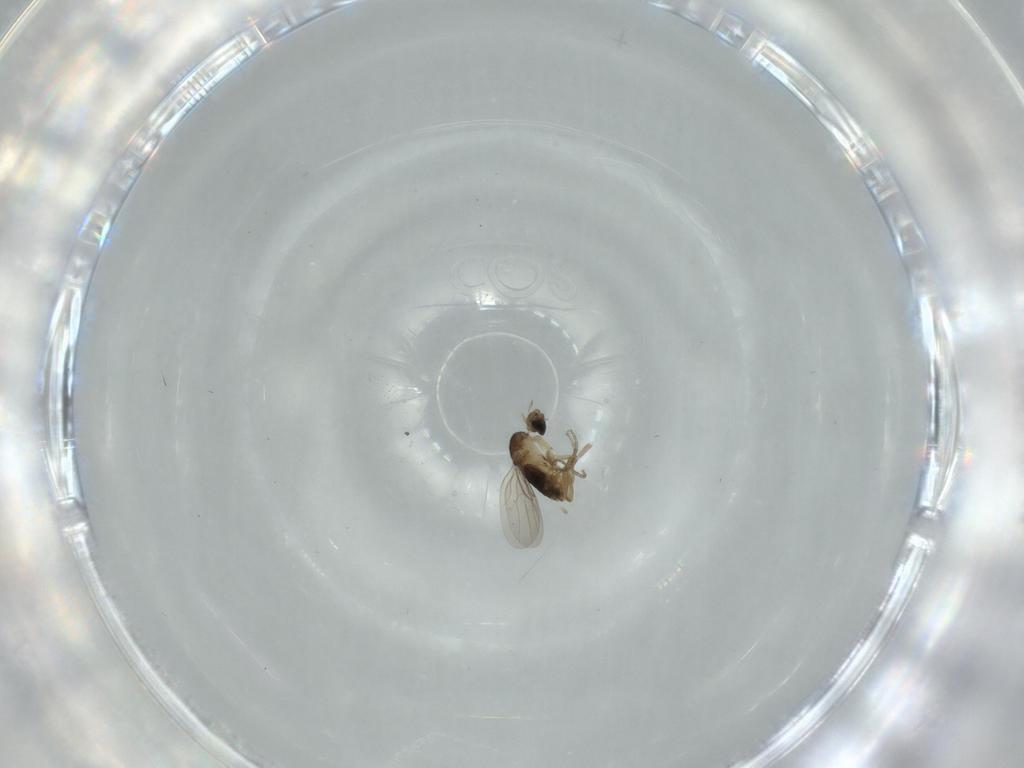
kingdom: Animalia
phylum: Arthropoda
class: Insecta
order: Diptera
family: Phoridae
